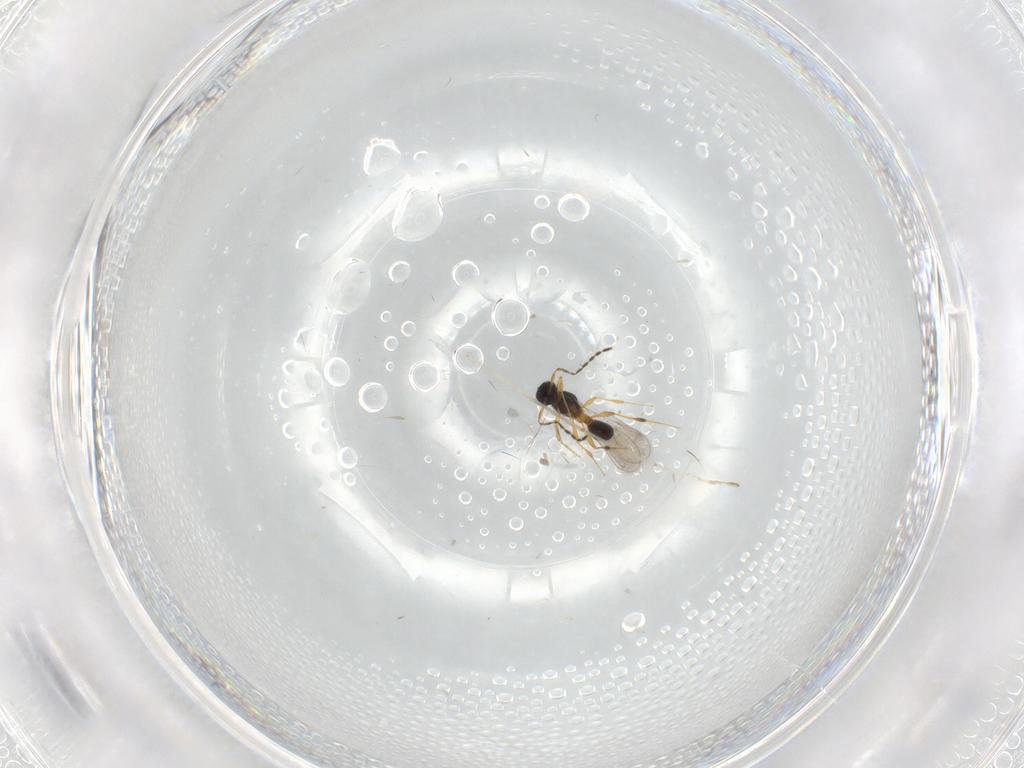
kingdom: Animalia
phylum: Arthropoda
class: Insecta
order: Hymenoptera
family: Platygastridae
